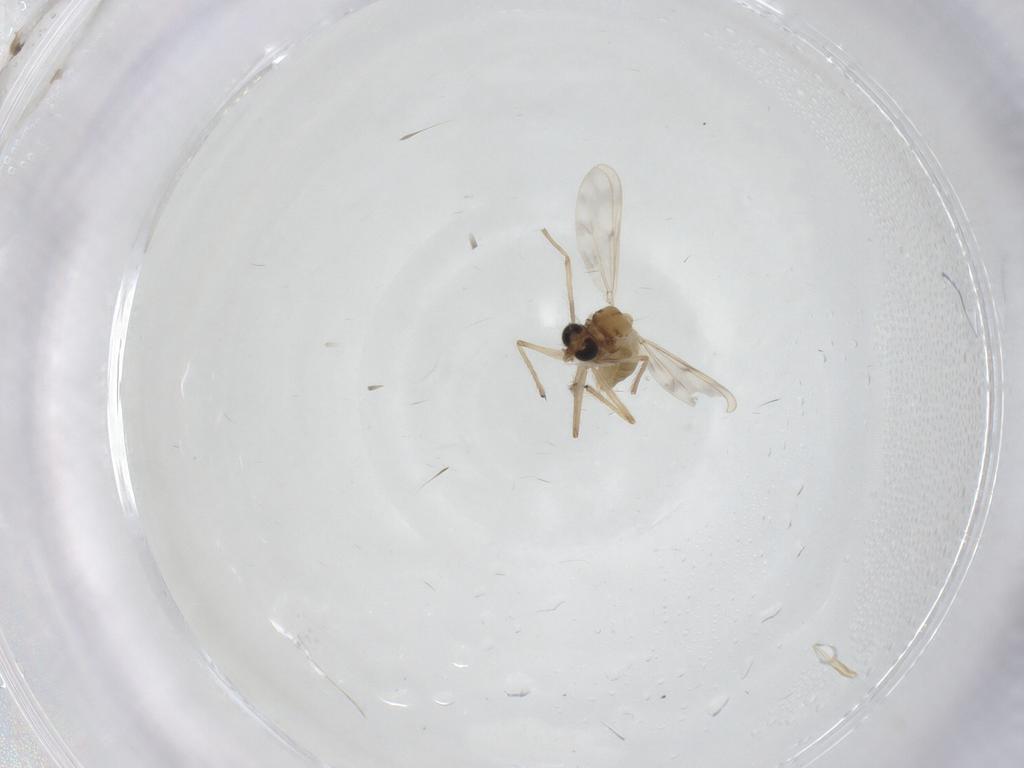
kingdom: Animalia
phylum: Arthropoda
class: Insecta
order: Diptera
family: Chironomidae
